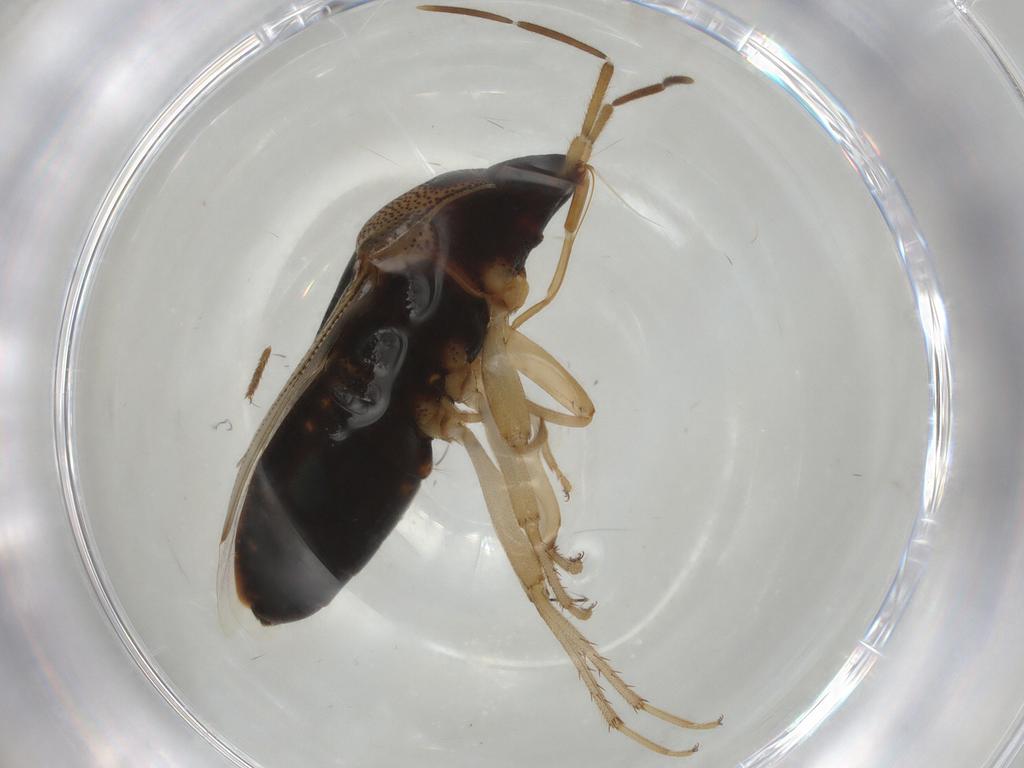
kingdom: Animalia
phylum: Arthropoda
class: Insecta
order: Hemiptera
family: Rhyparochromidae
